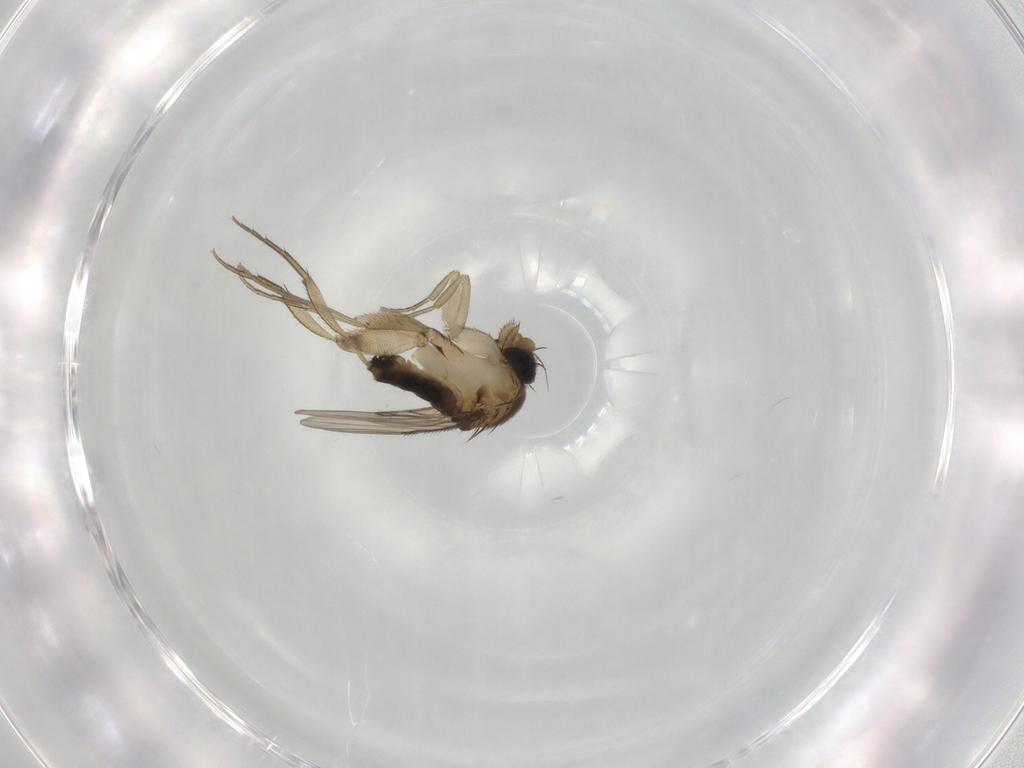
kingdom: Animalia
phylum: Arthropoda
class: Insecta
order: Diptera
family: Phoridae
